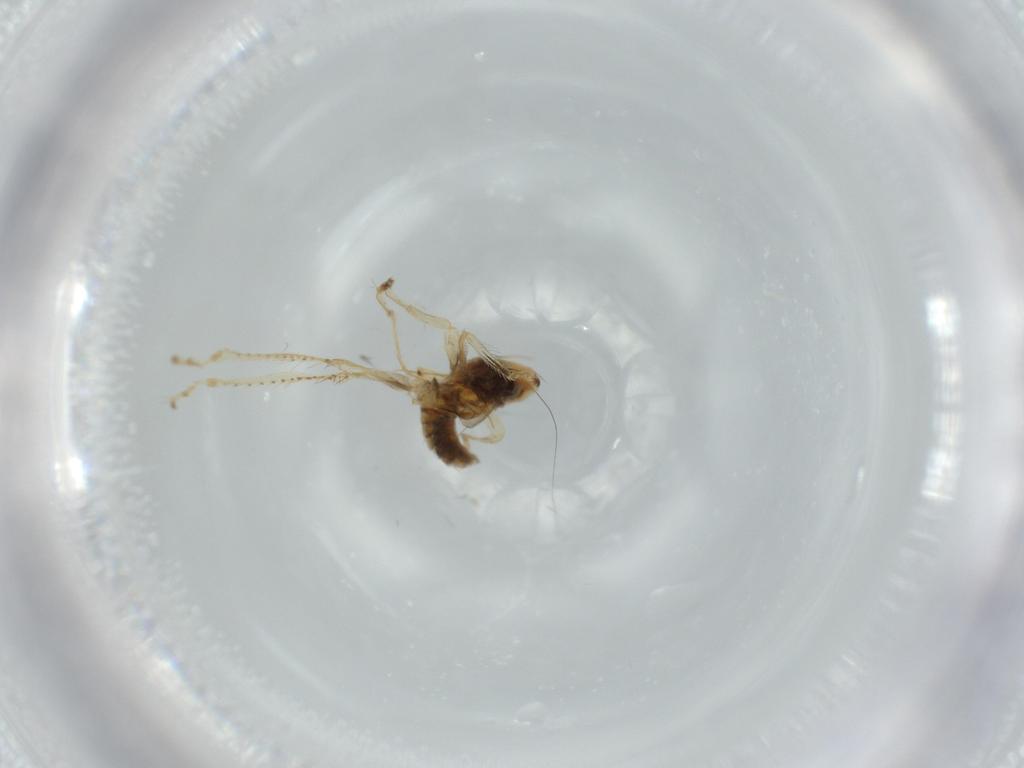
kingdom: Animalia
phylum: Arthropoda
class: Insecta
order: Hemiptera
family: Cicadellidae
